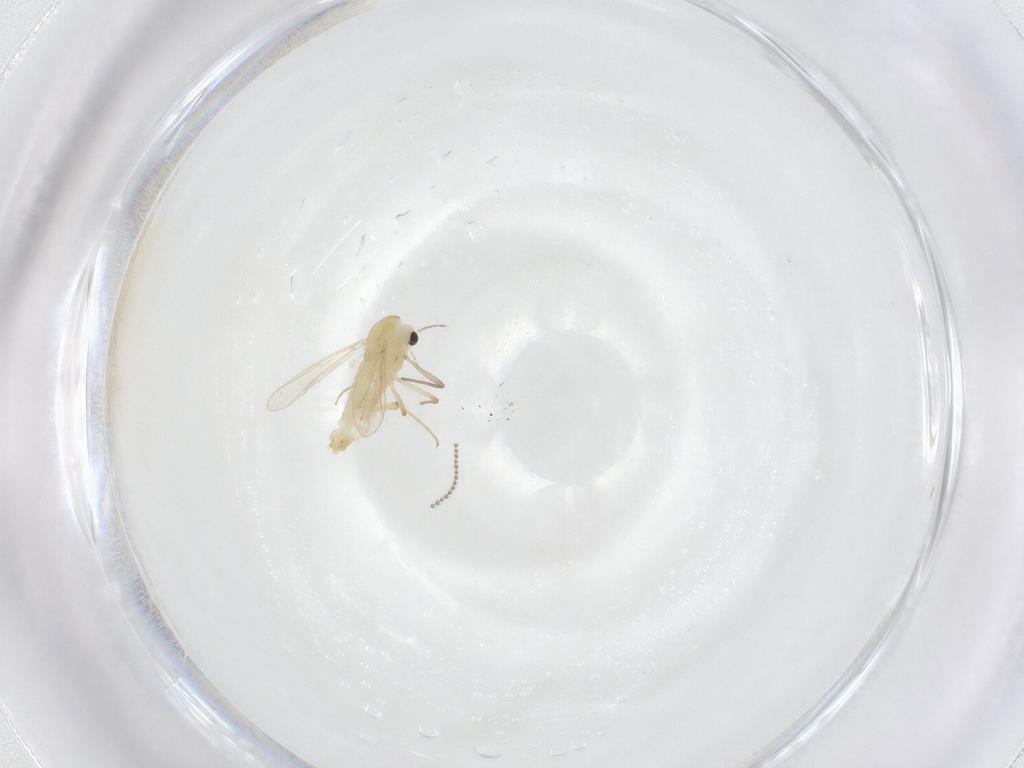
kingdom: Animalia
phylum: Arthropoda
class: Insecta
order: Diptera
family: Chironomidae
